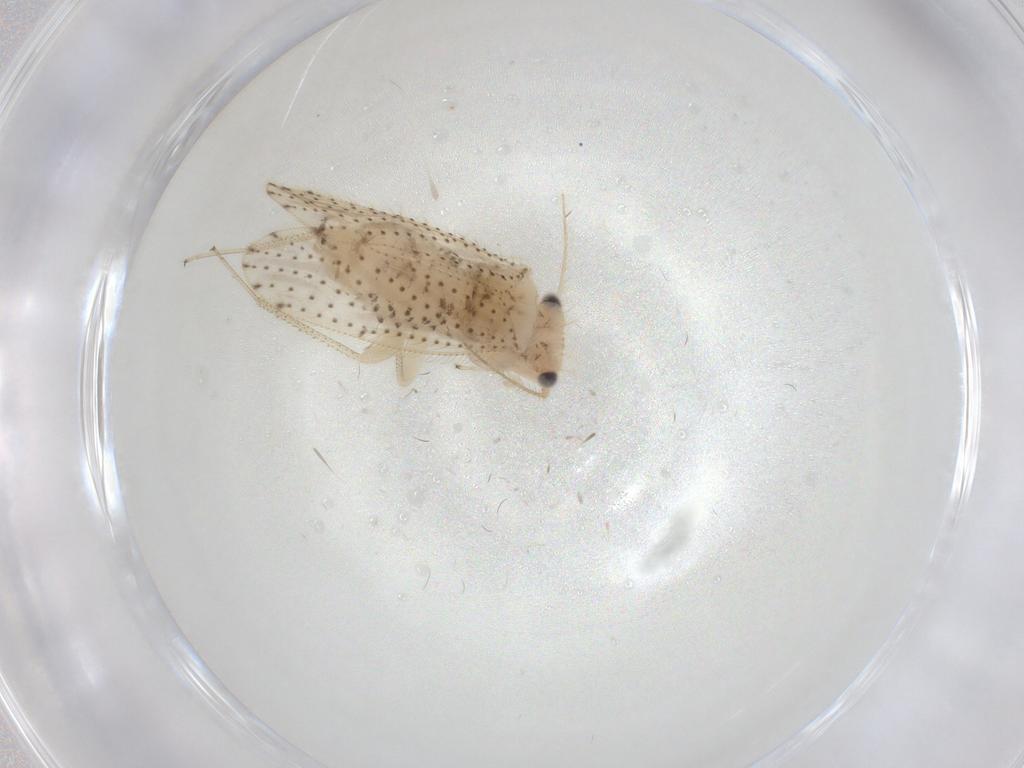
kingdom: Animalia
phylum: Arthropoda
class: Insecta
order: Psocodea
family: Myopsocidae
